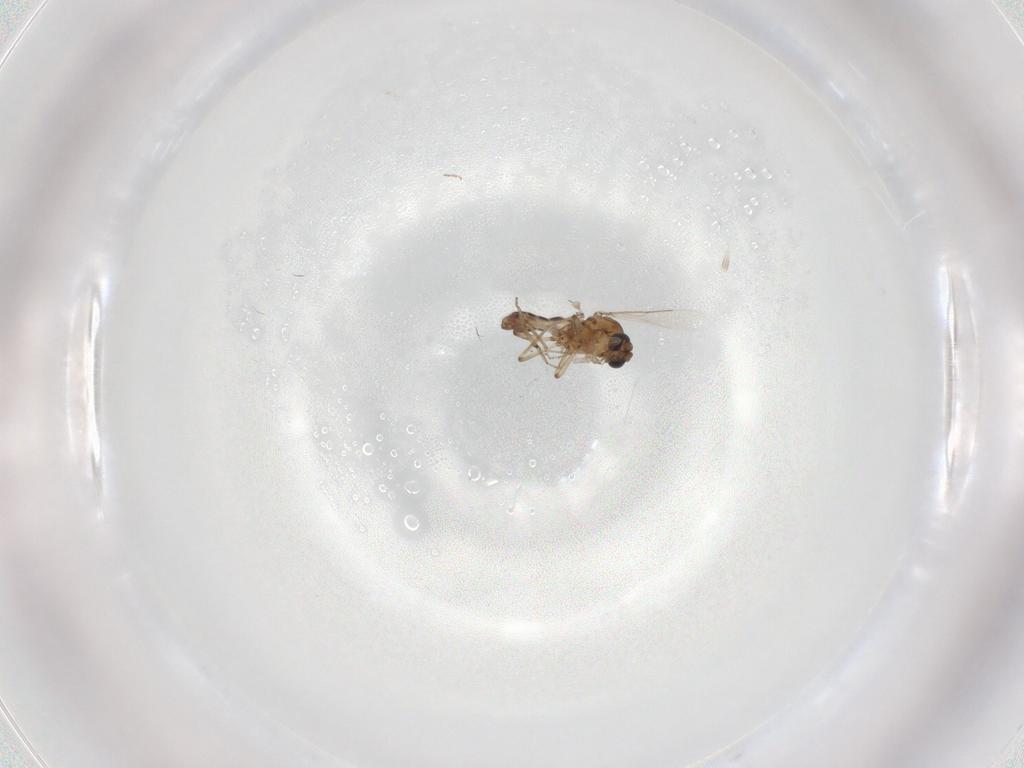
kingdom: Animalia
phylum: Arthropoda
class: Insecta
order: Diptera
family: Ceratopogonidae
